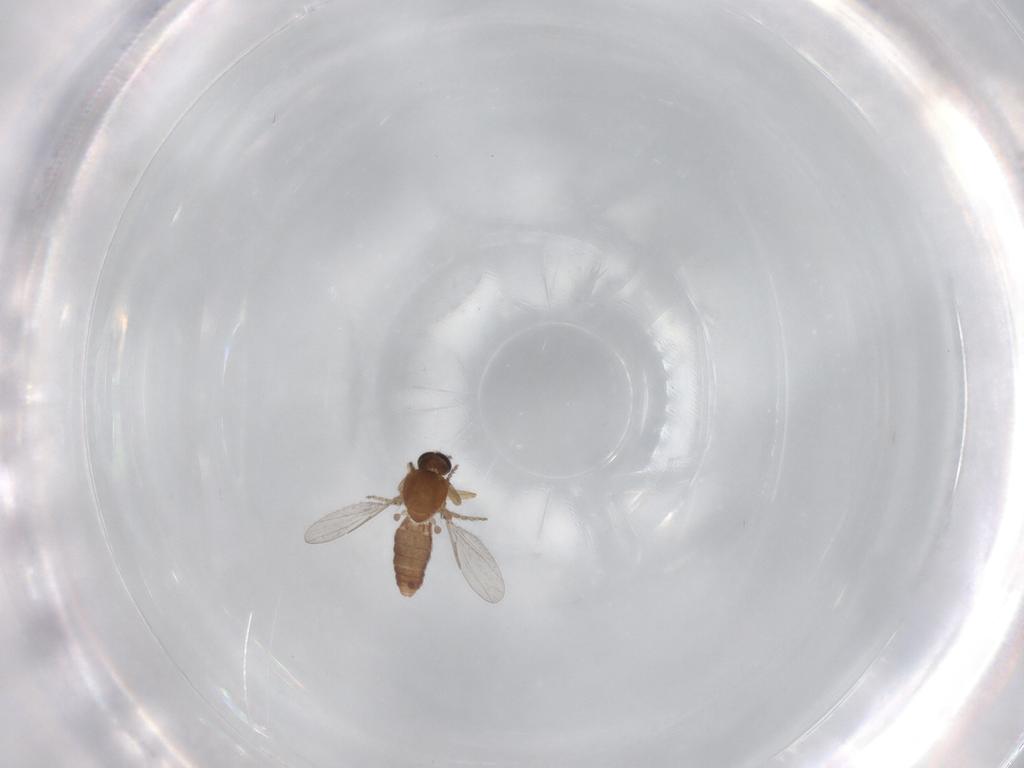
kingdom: Animalia
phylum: Arthropoda
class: Insecta
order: Diptera
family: Ceratopogonidae
